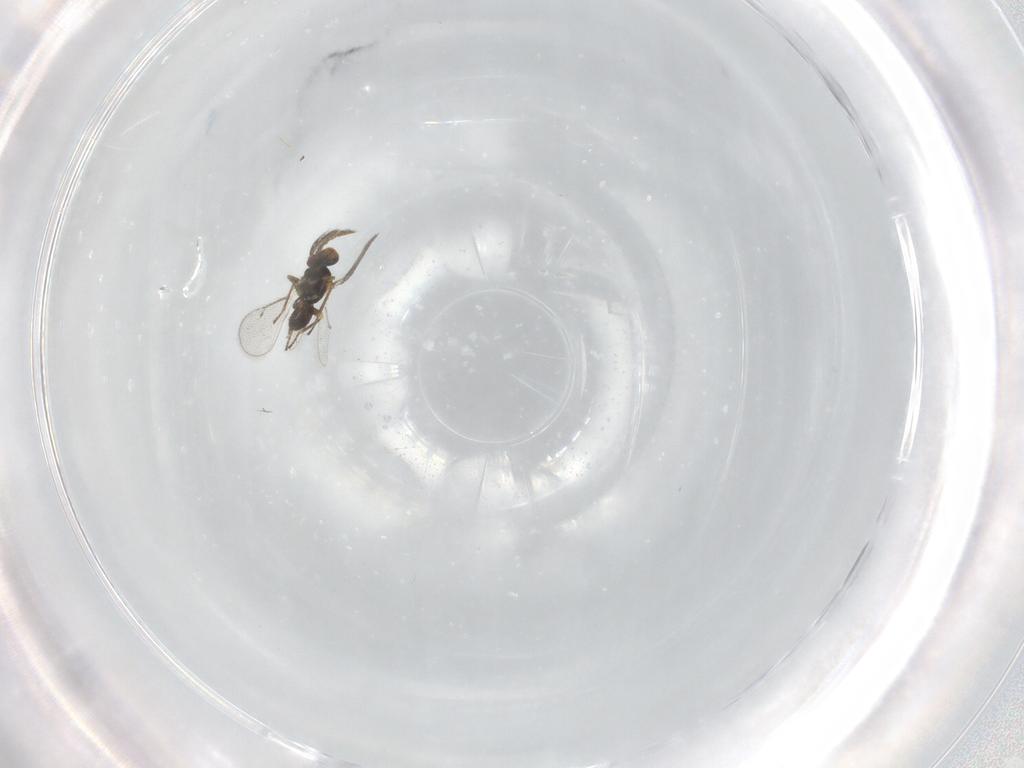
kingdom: Animalia
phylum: Arthropoda
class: Insecta
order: Hymenoptera
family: Eulophidae
